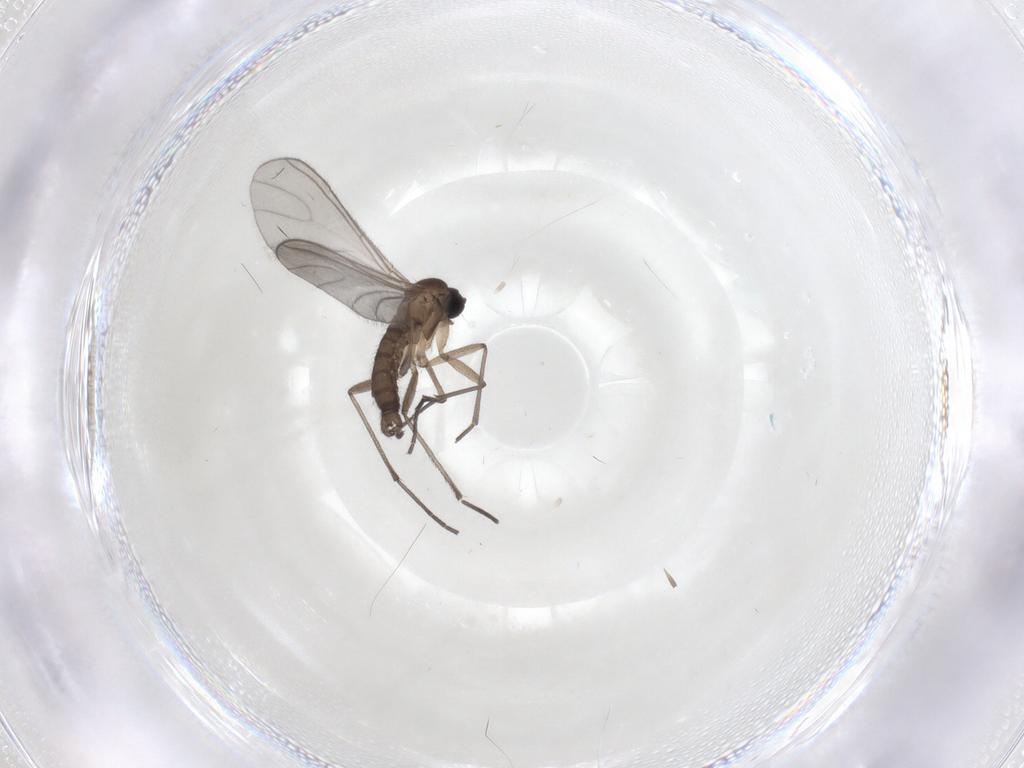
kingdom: Animalia
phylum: Arthropoda
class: Insecta
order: Diptera
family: Sciaridae
